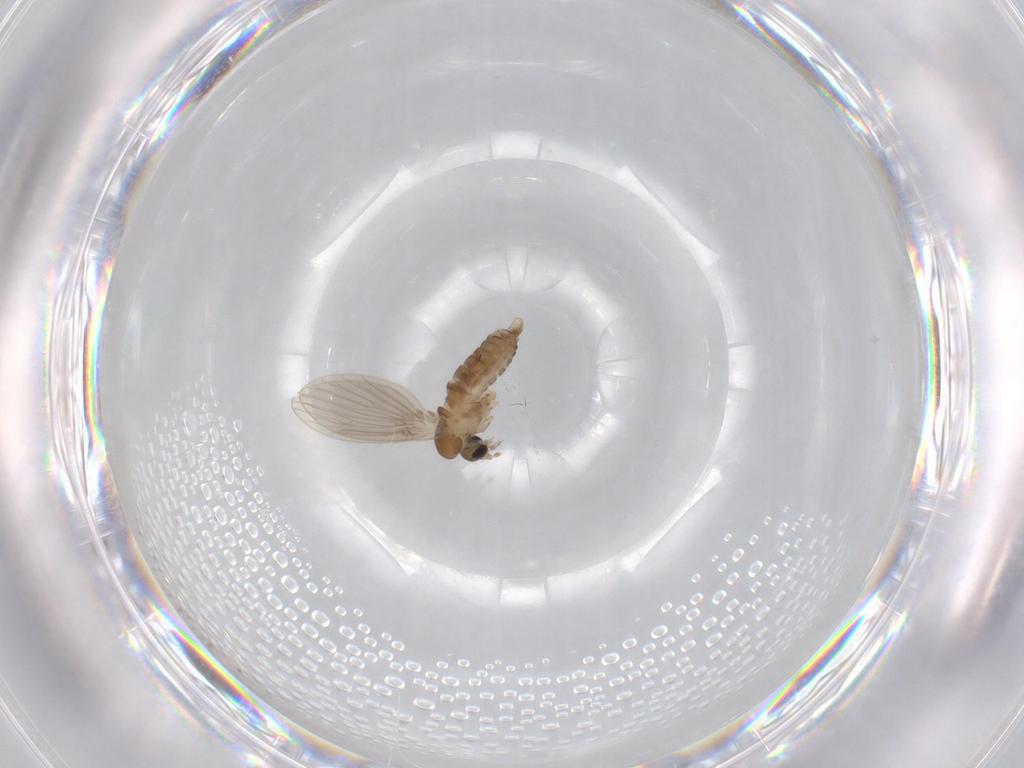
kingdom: Animalia
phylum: Arthropoda
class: Insecta
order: Diptera
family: Psychodidae
